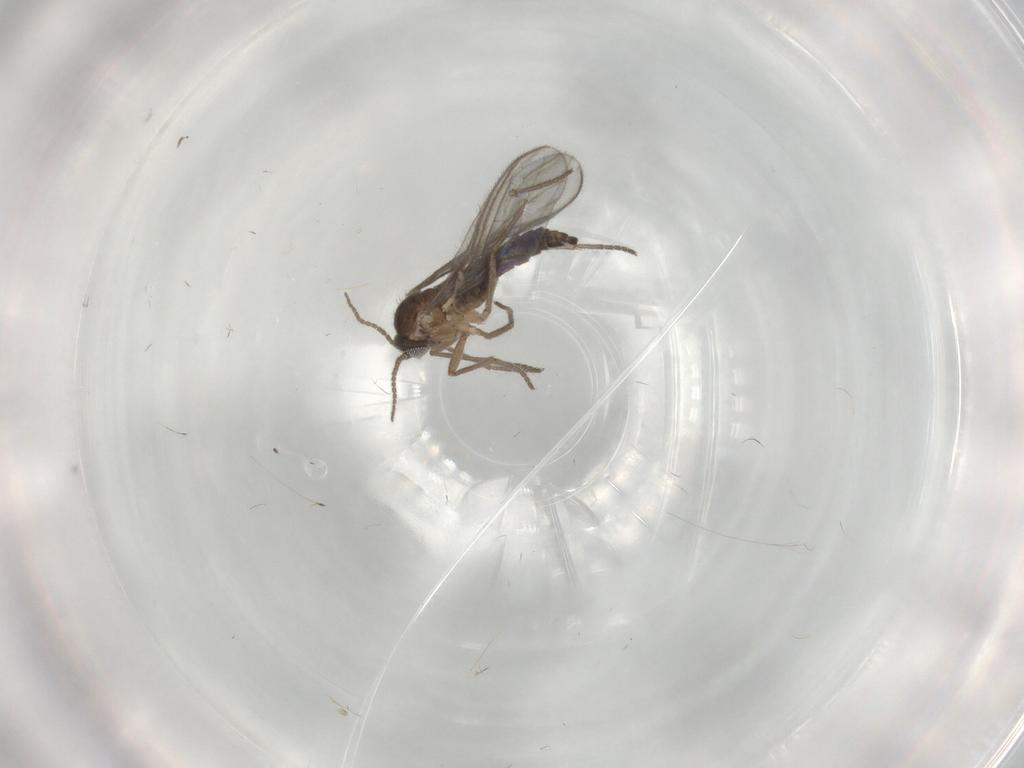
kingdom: Animalia
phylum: Arthropoda
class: Insecta
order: Diptera
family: Sciaridae
